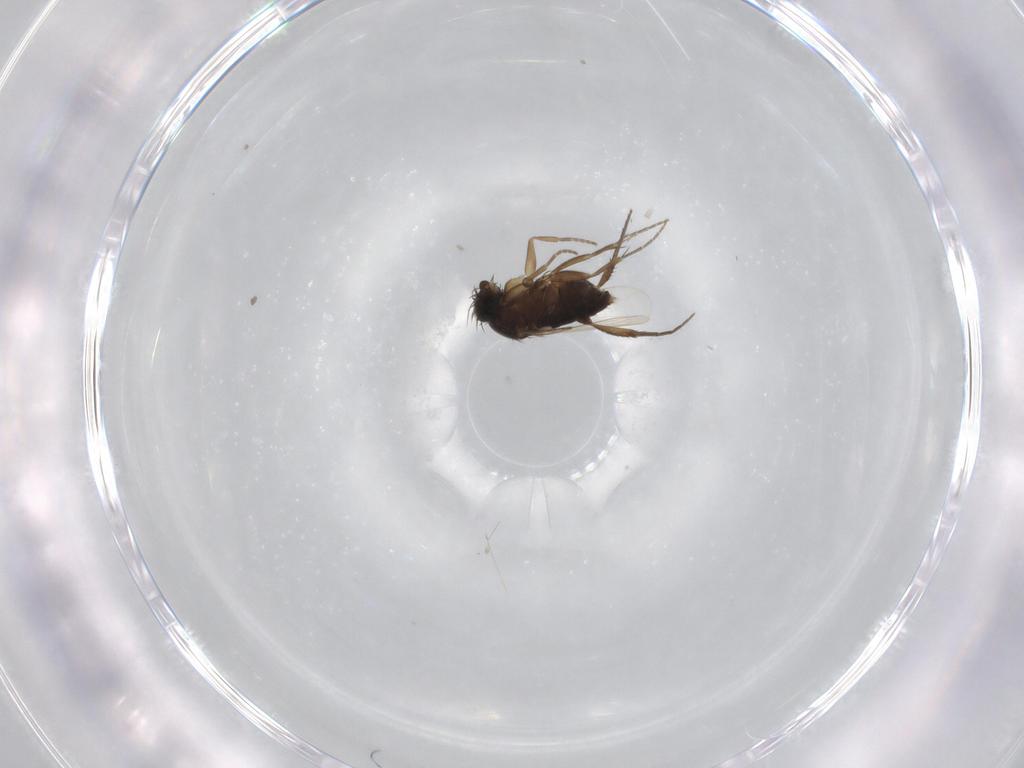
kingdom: Animalia
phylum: Arthropoda
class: Insecta
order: Diptera
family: Phoridae
